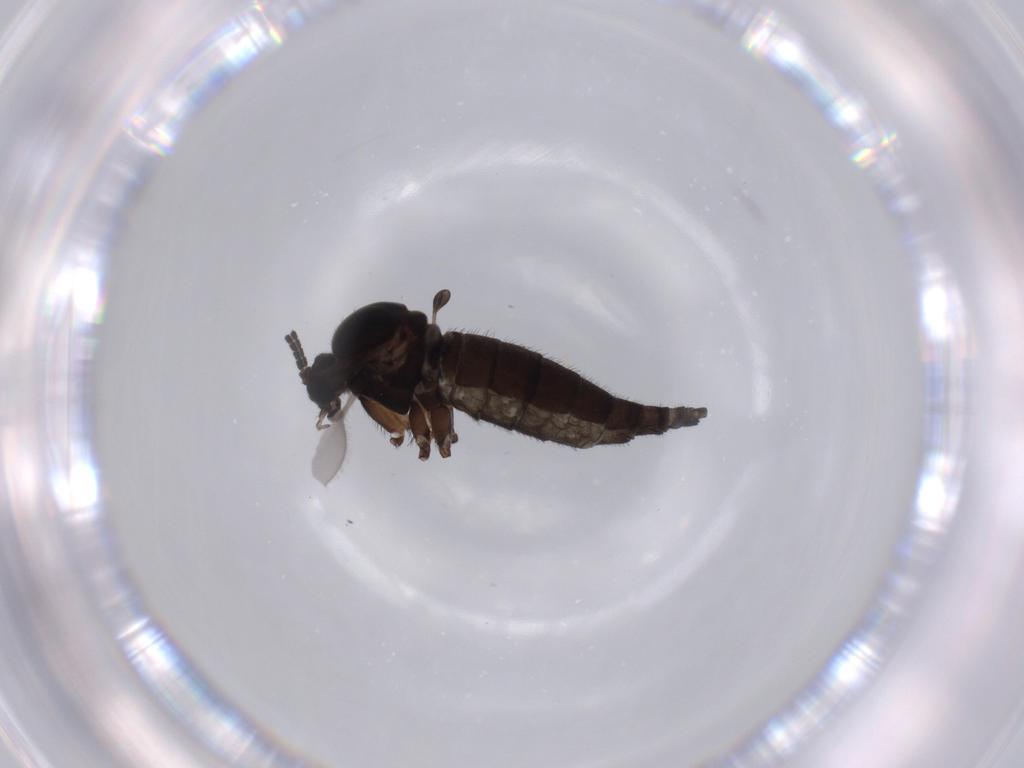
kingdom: Animalia
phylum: Arthropoda
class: Insecta
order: Diptera
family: Sciaridae
